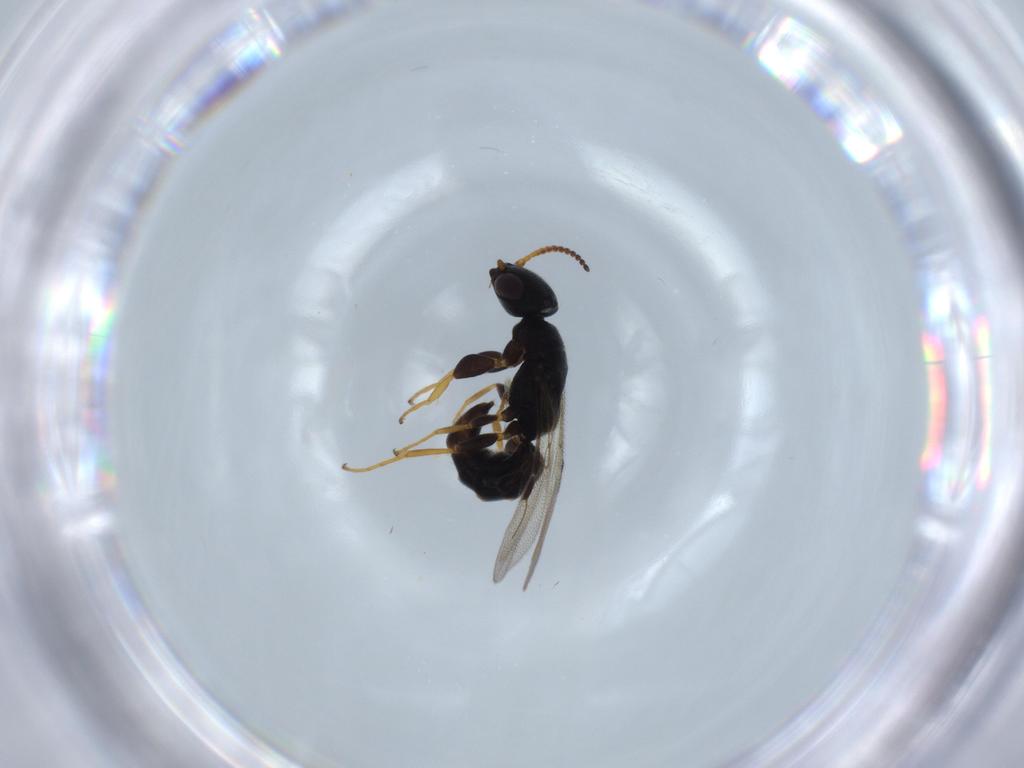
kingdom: Animalia
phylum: Arthropoda
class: Insecta
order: Hymenoptera
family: Bethylidae
